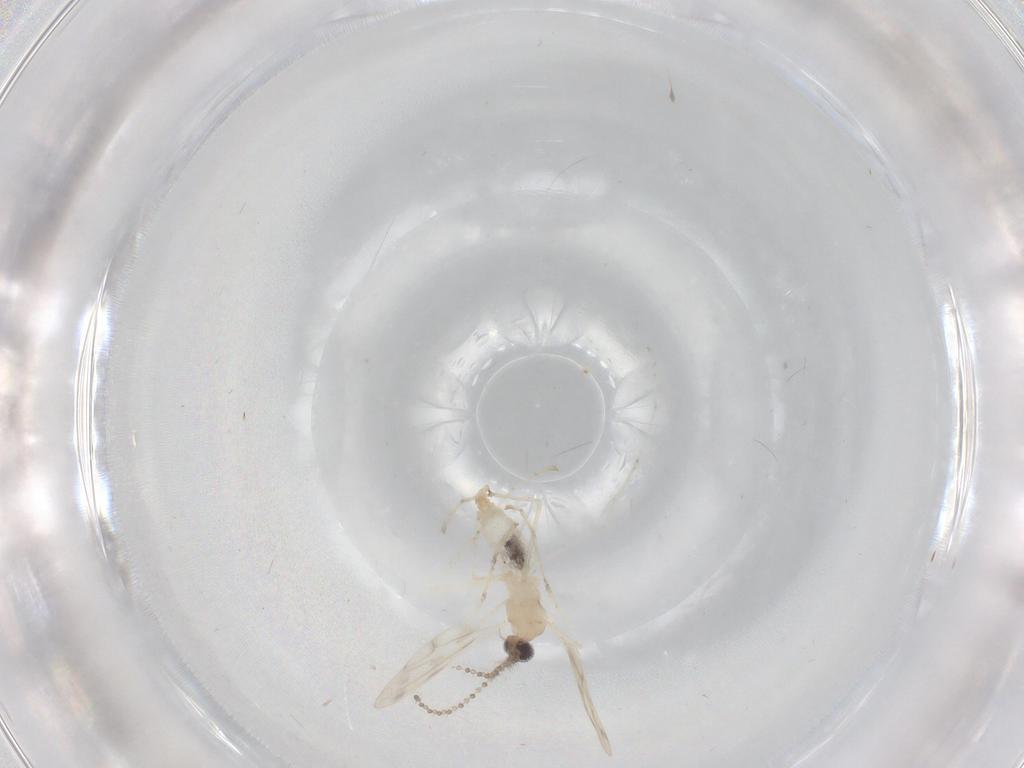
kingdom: Animalia
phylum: Arthropoda
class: Insecta
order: Diptera
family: Cecidomyiidae
